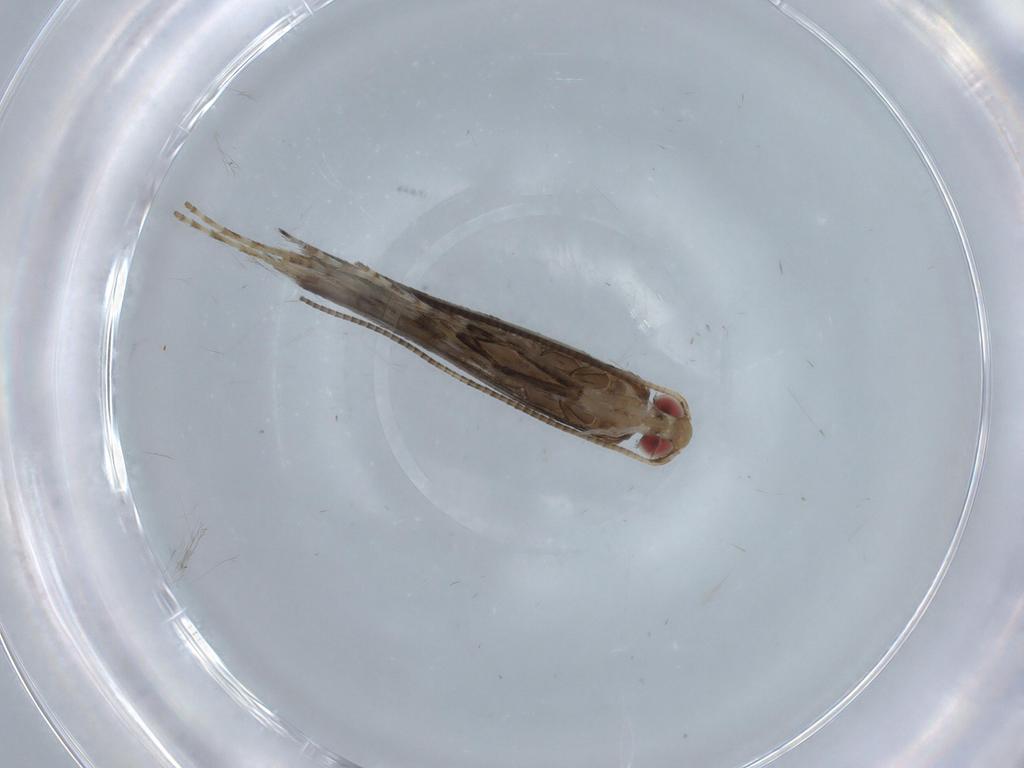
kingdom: Animalia
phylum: Arthropoda
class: Insecta
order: Lepidoptera
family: Gracillariidae
